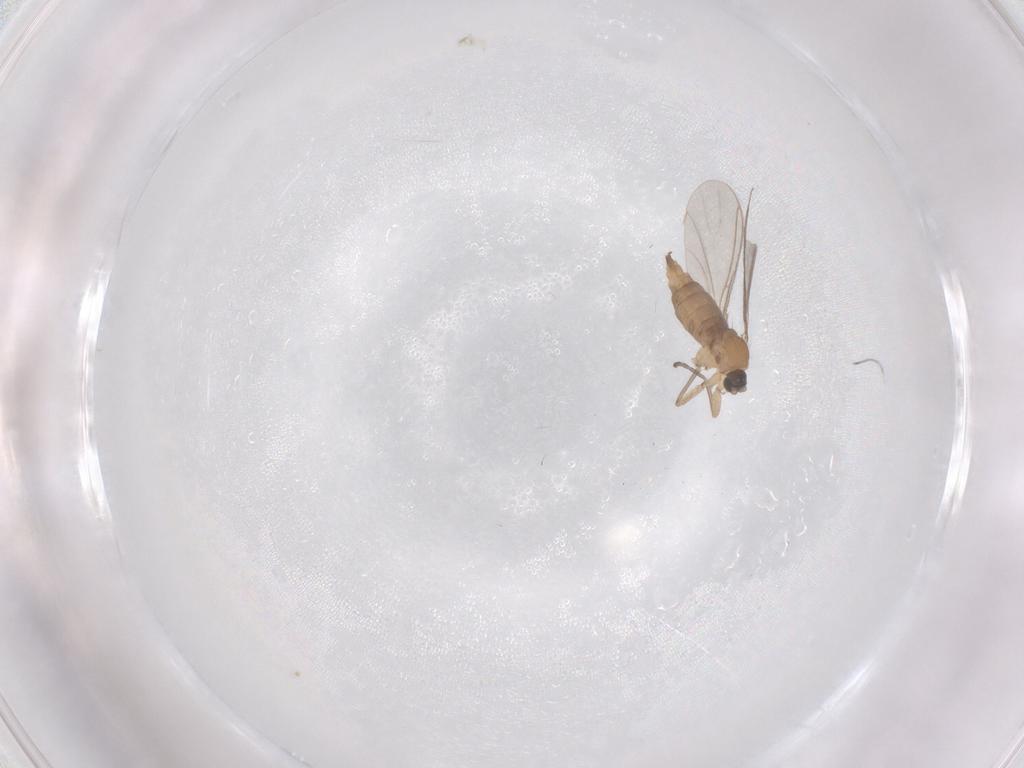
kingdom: Animalia
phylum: Arthropoda
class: Insecta
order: Diptera
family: Sciaridae
